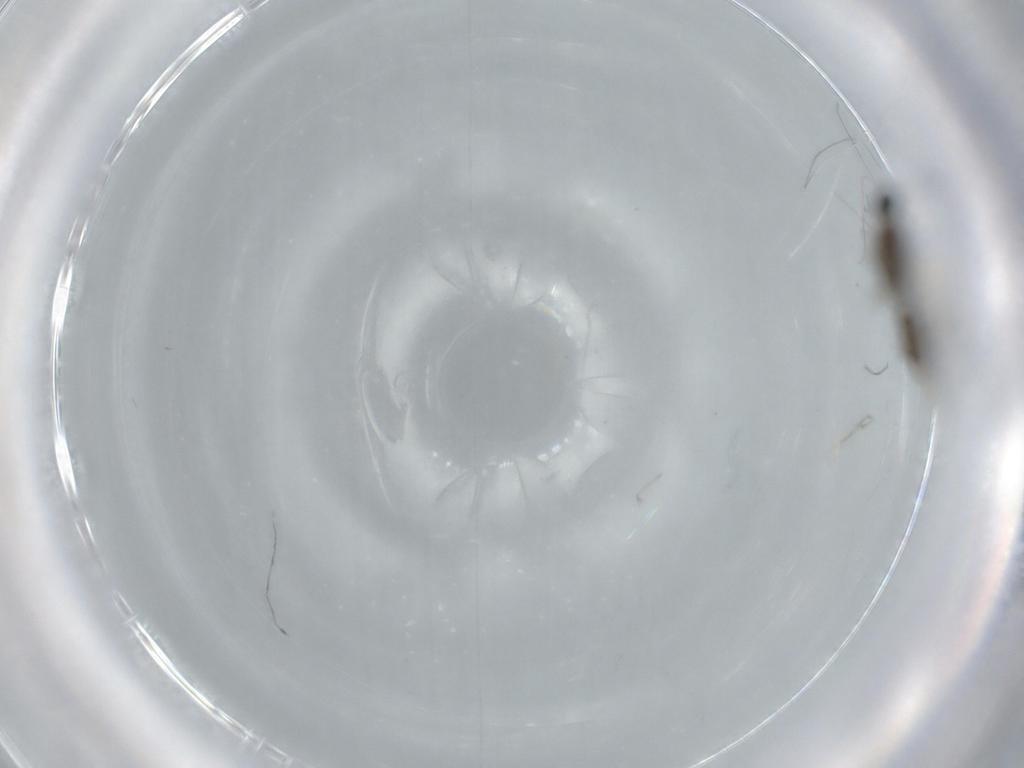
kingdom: Animalia
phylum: Arthropoda
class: Insecta
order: Diptera
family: Cecidomyiidae
